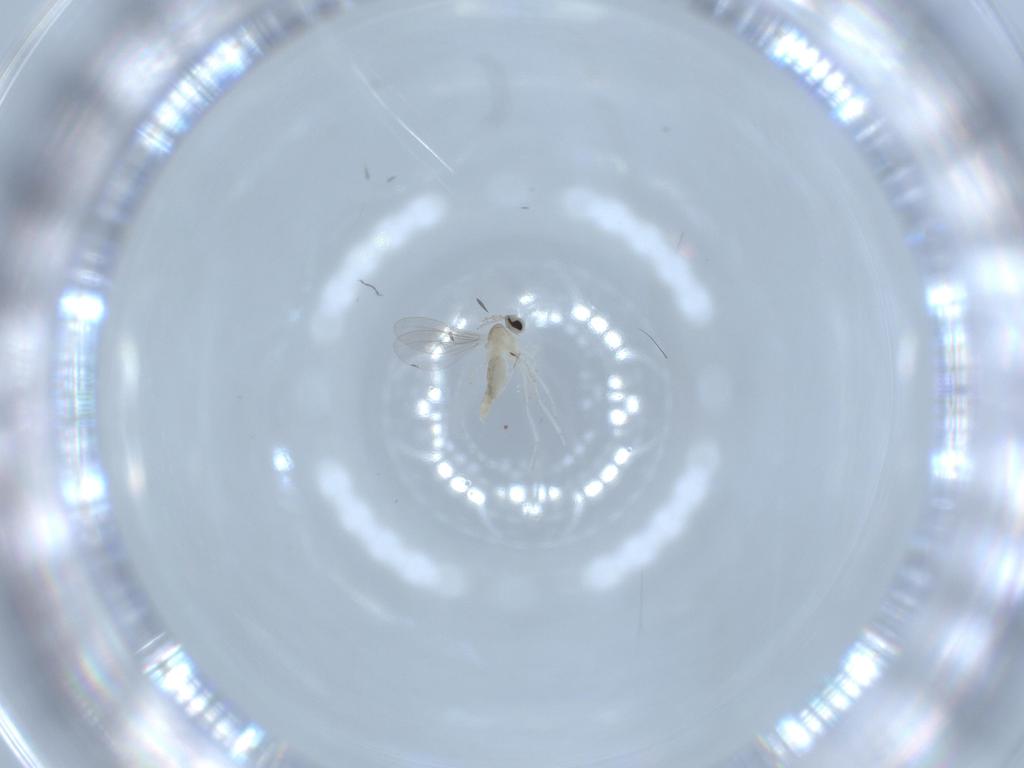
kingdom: Animalia
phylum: Arthropoda
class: Insecta
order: Diptera
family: Cecidomyiidae
